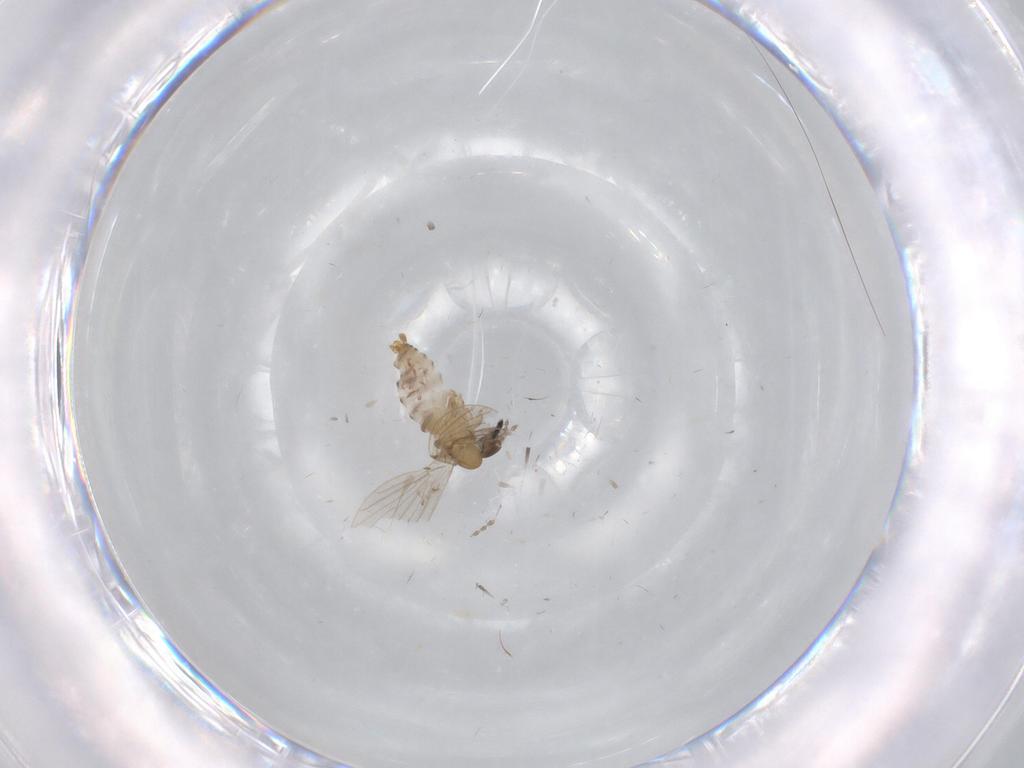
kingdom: Animalia
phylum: Arthropoda
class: Insecta
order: Diptera
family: Psychodidae
